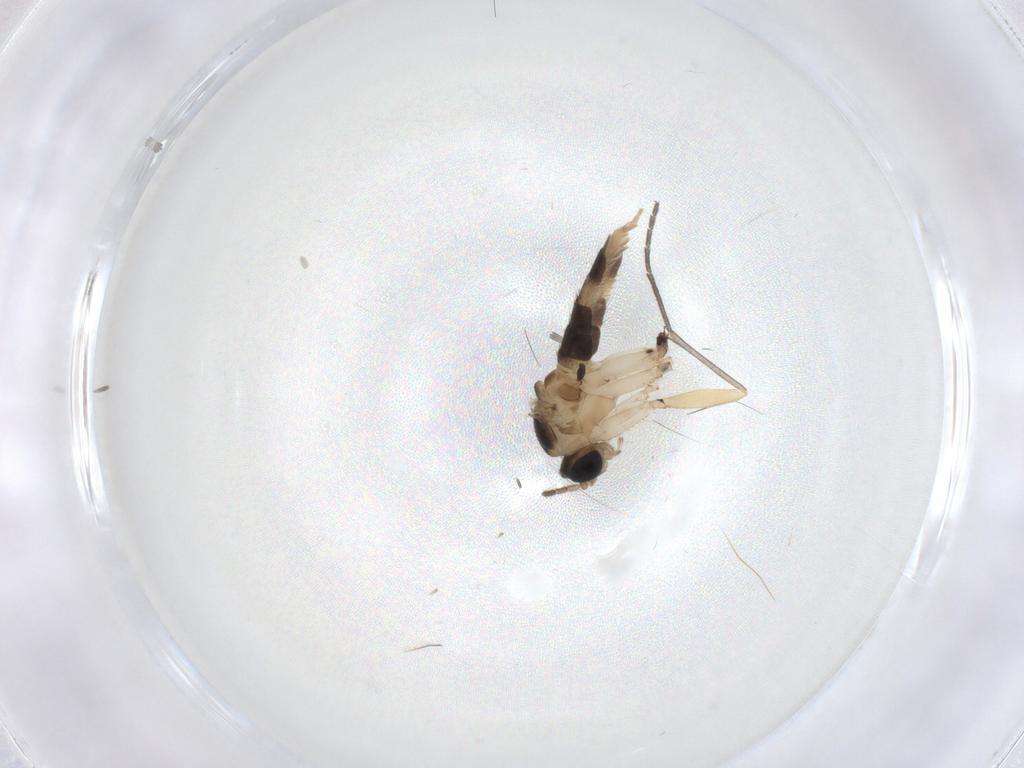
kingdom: Animalia
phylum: Arthropoda
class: Insecta
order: Diptera
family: Sciaridae
